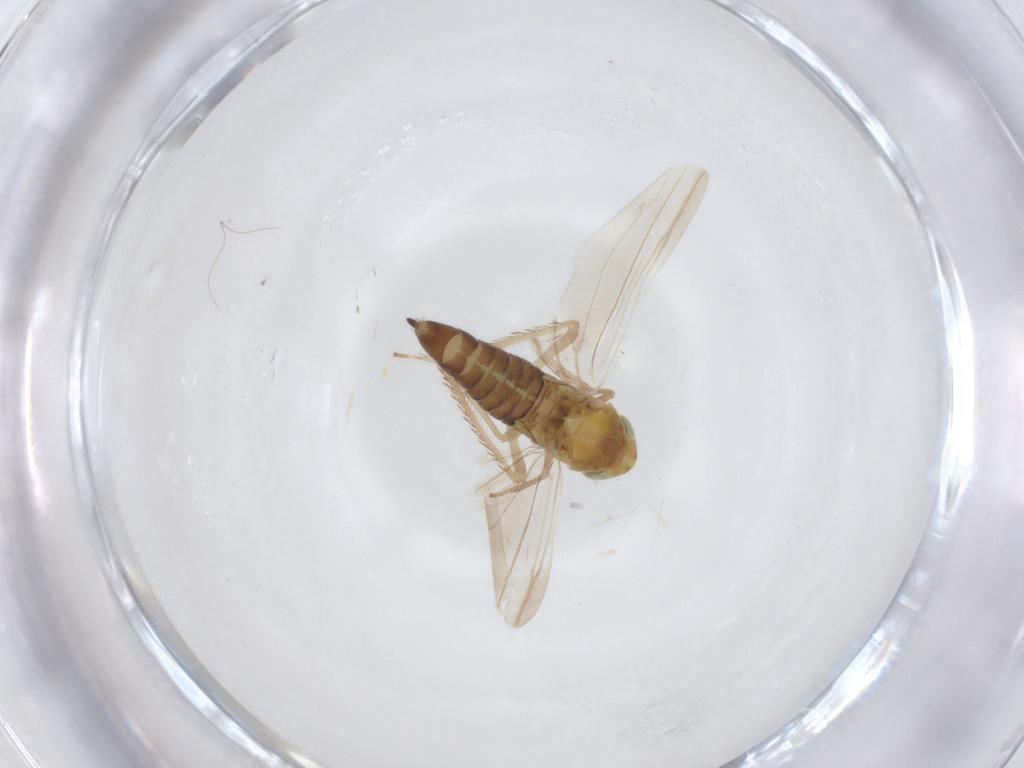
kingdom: Animalia
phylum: Arthropoda
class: Insecta
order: Hemiptera
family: Cicadellidae
